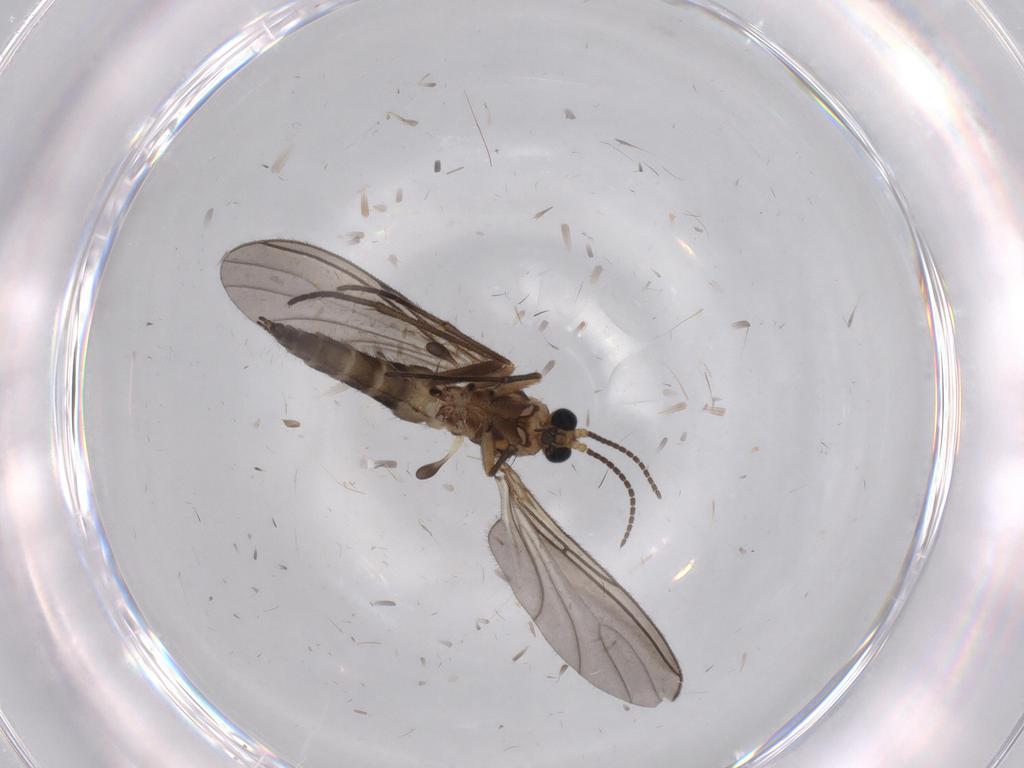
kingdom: Animalia
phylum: Arthropoda
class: Insecta
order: Diptera
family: Sciaridae
